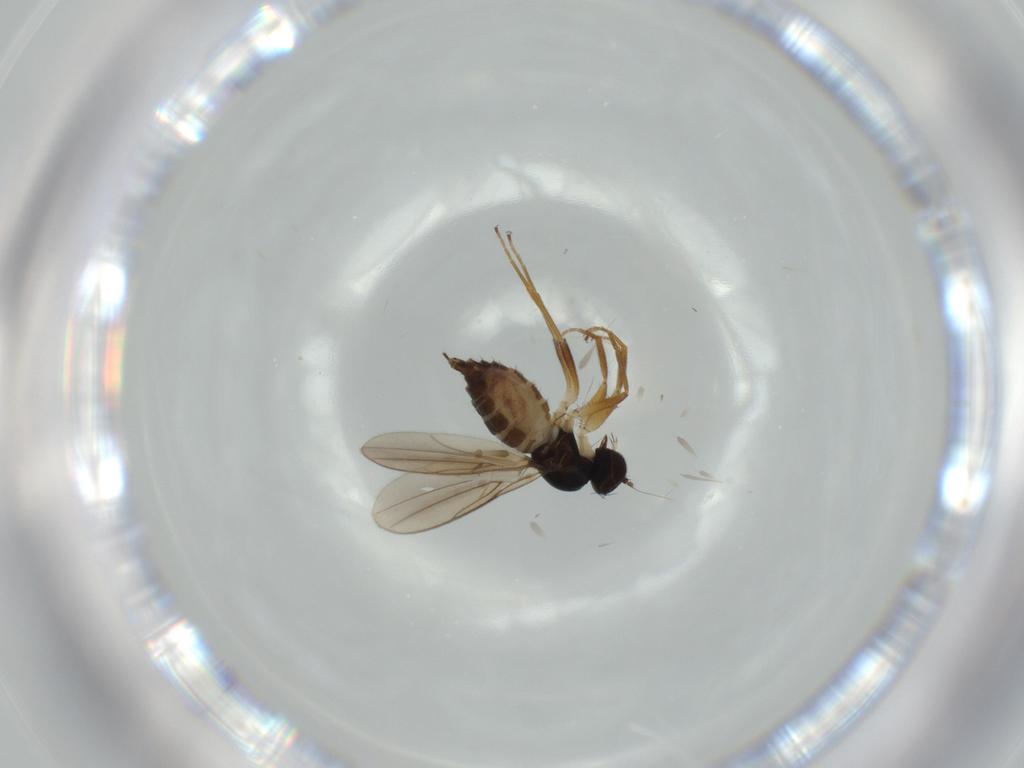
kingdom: Animalia
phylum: Arthropoda
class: Insecta
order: Diptera
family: Hybotidae
